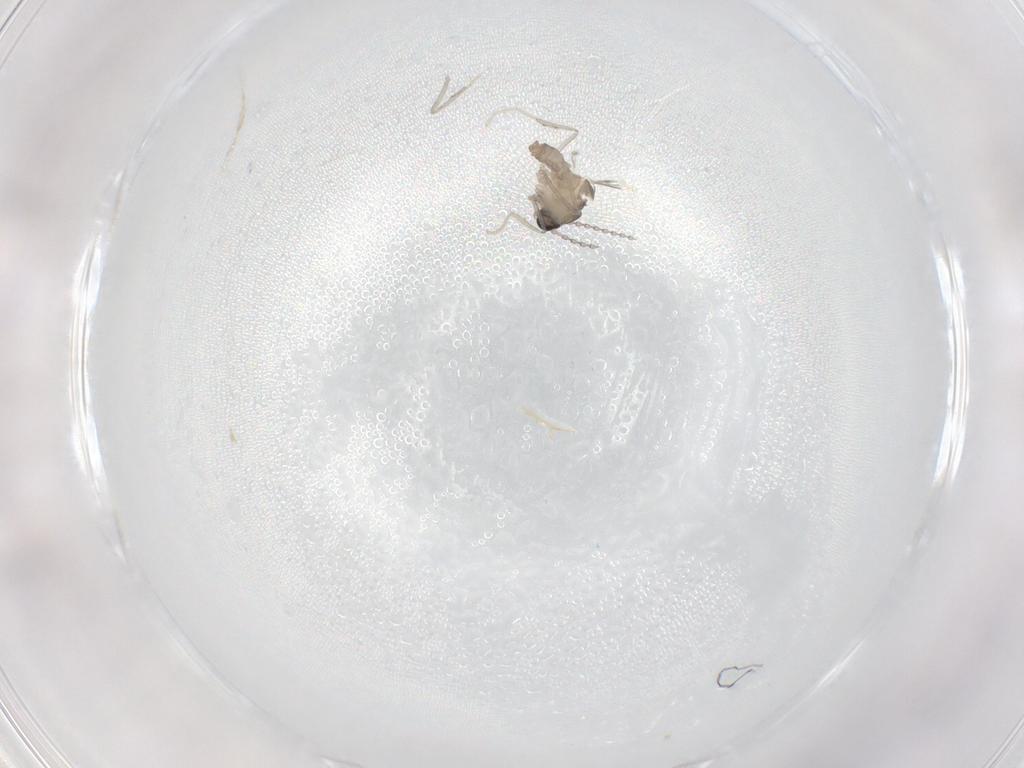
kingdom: Animalia
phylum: Arthropoda
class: Insecta
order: Diptera
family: Sciaridae
